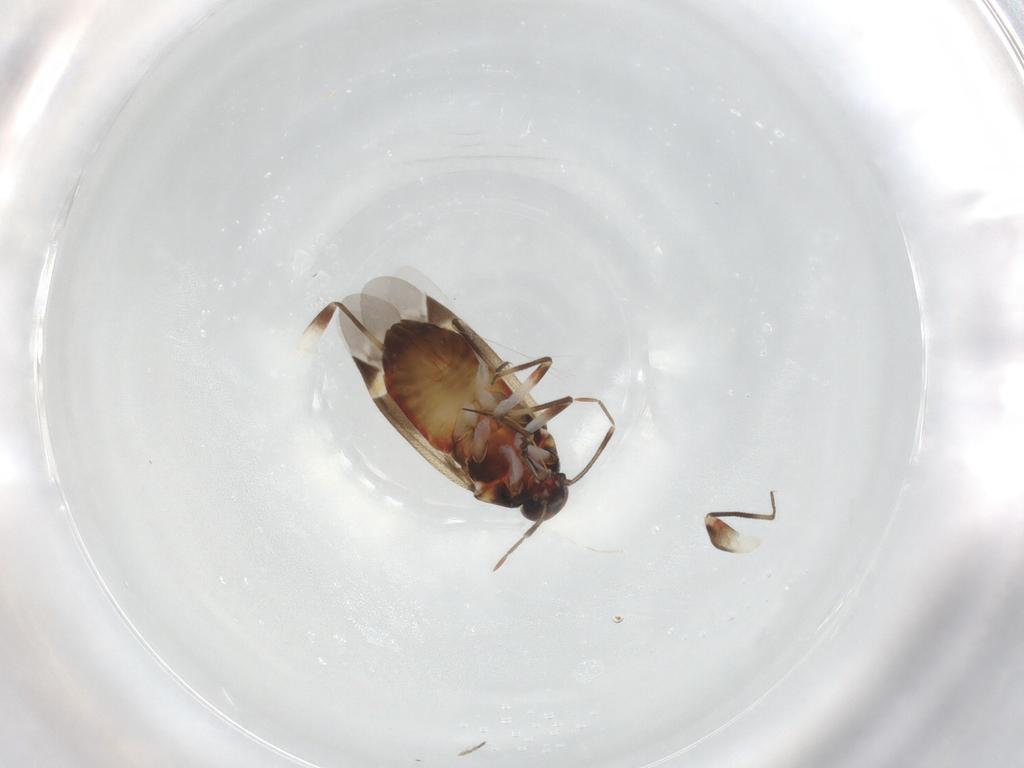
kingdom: Animalia
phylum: Arthropoda
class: Insecta
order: Hemiptera
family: Miridae
